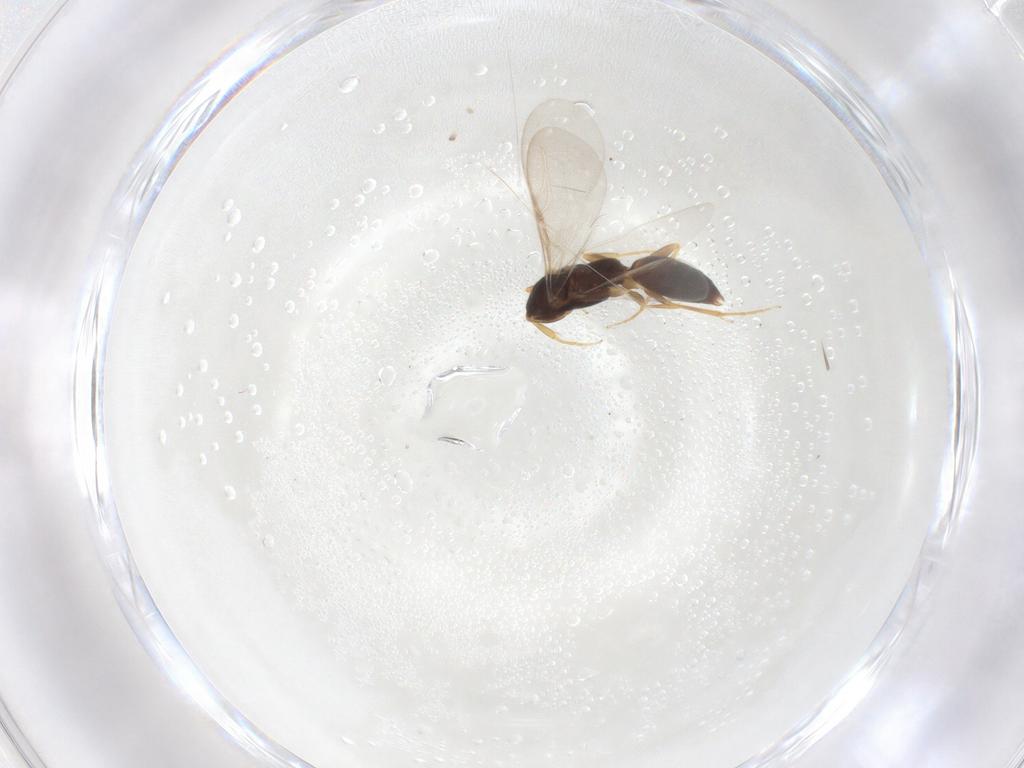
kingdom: Animalia
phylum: Arthropoda
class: Insecta
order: Hymenoptera
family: Bethylidae
